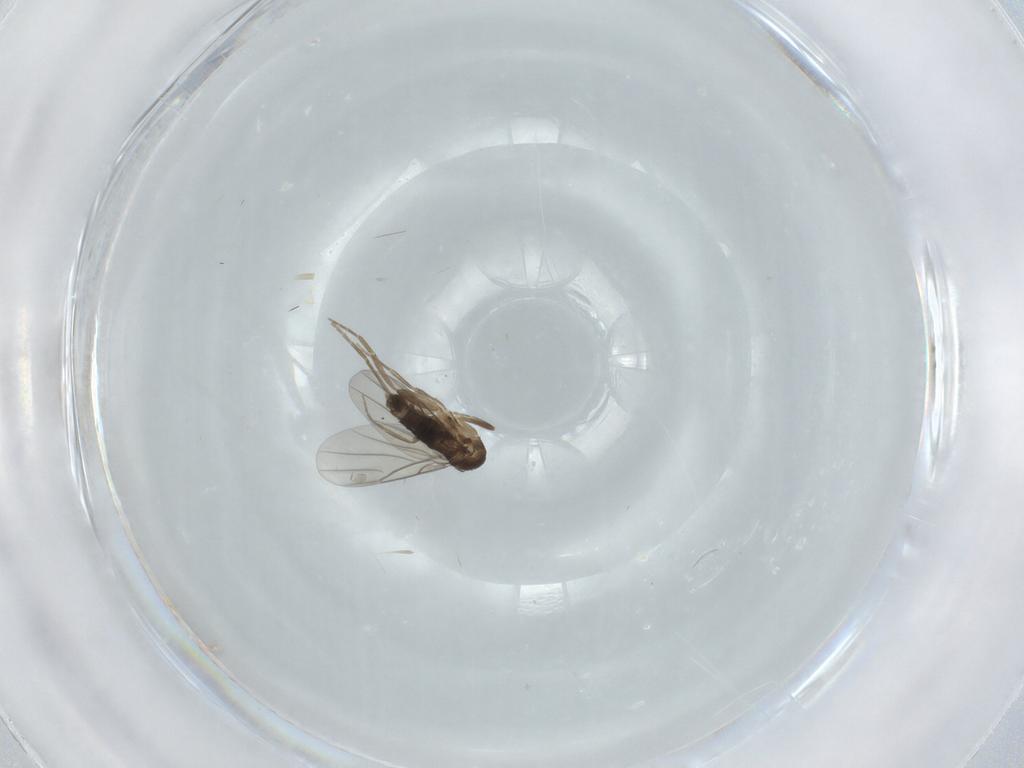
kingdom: Animalia
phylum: Arthropoda
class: Insecta
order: Diptera
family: Phoridae
